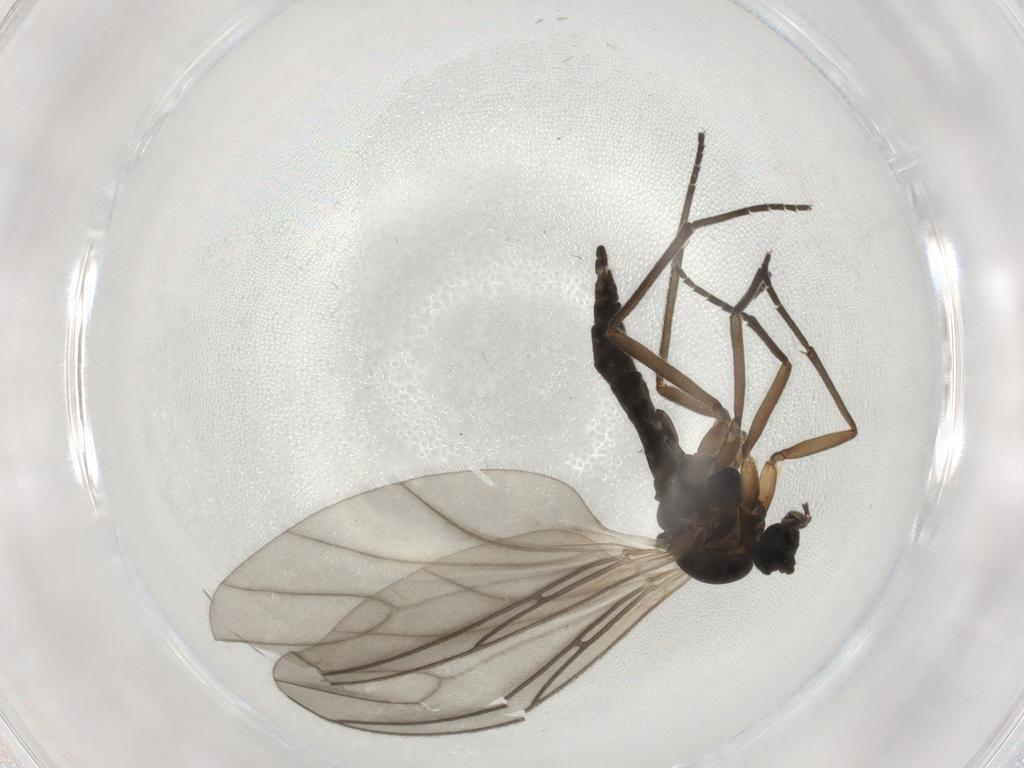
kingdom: Animalia
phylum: Arthropoda
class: Insecta
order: Diptera
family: Sciaridae
